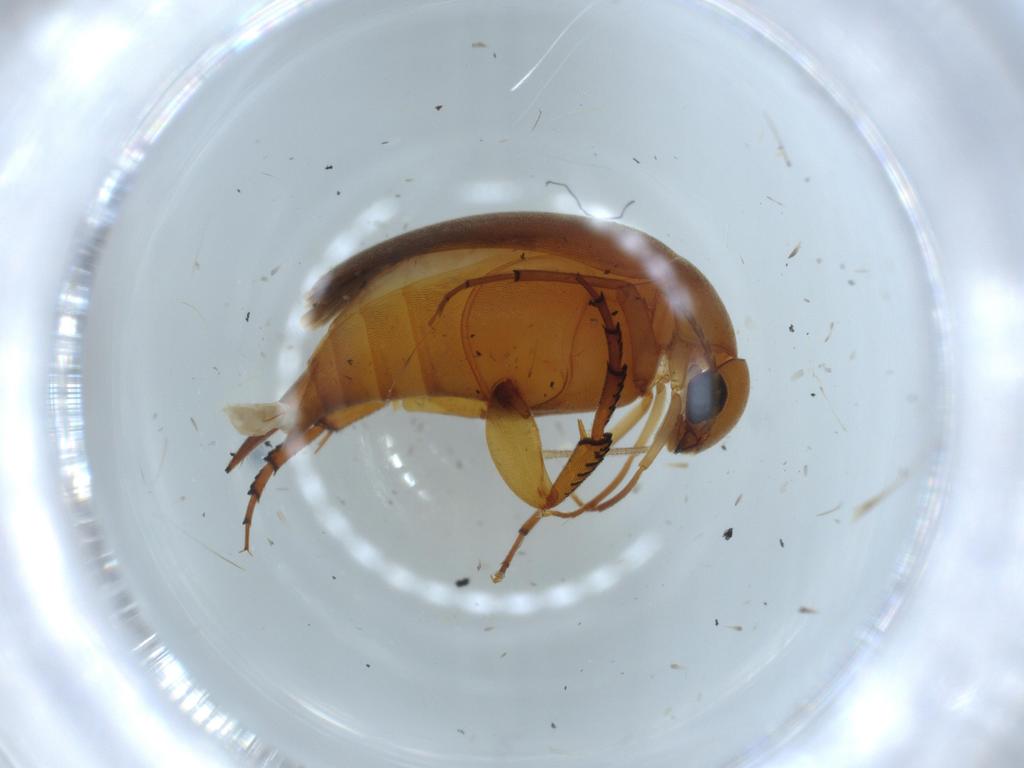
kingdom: Animalia
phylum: Arthropoda
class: Insecta
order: Coleoptera
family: Mordellidae
